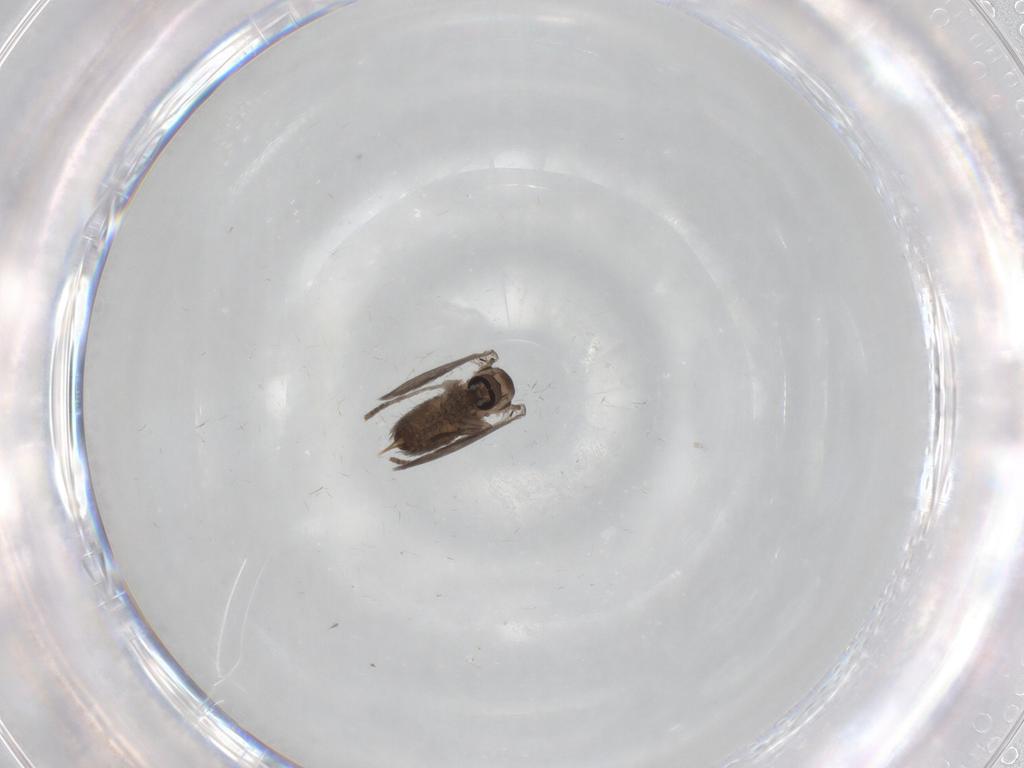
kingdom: Animalia
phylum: Arthropoda
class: Insecta
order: Diptera
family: Psychodidae
